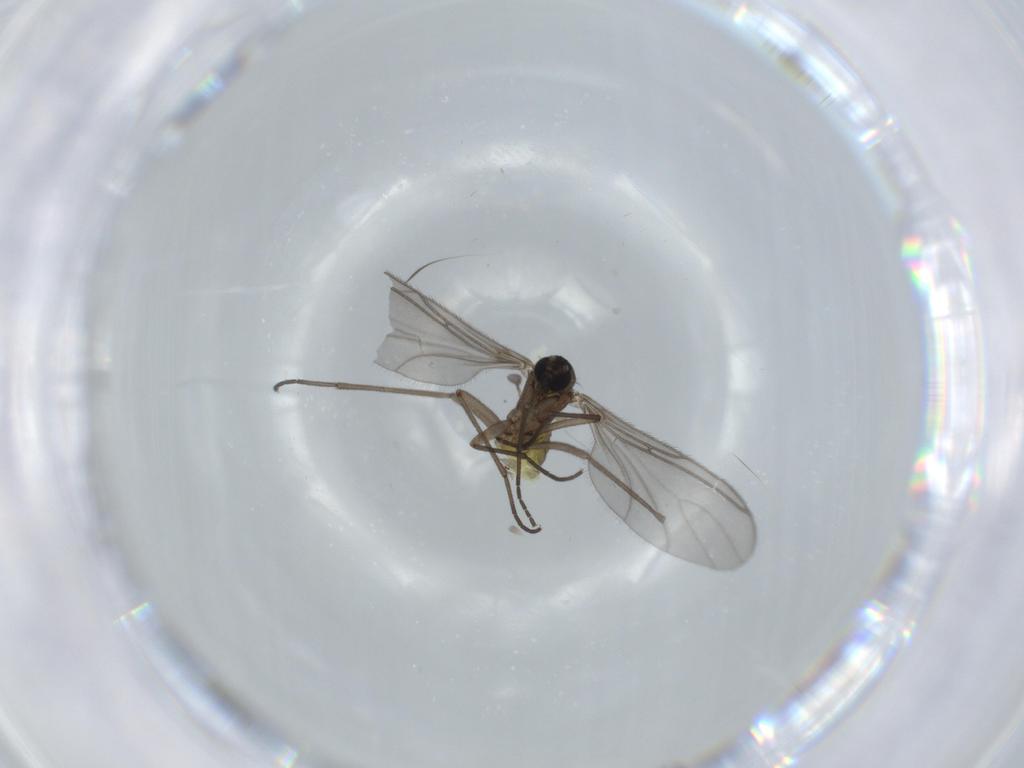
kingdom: Animalia
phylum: Arthropoda
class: Insecta
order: Diptera
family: Sciaridae
